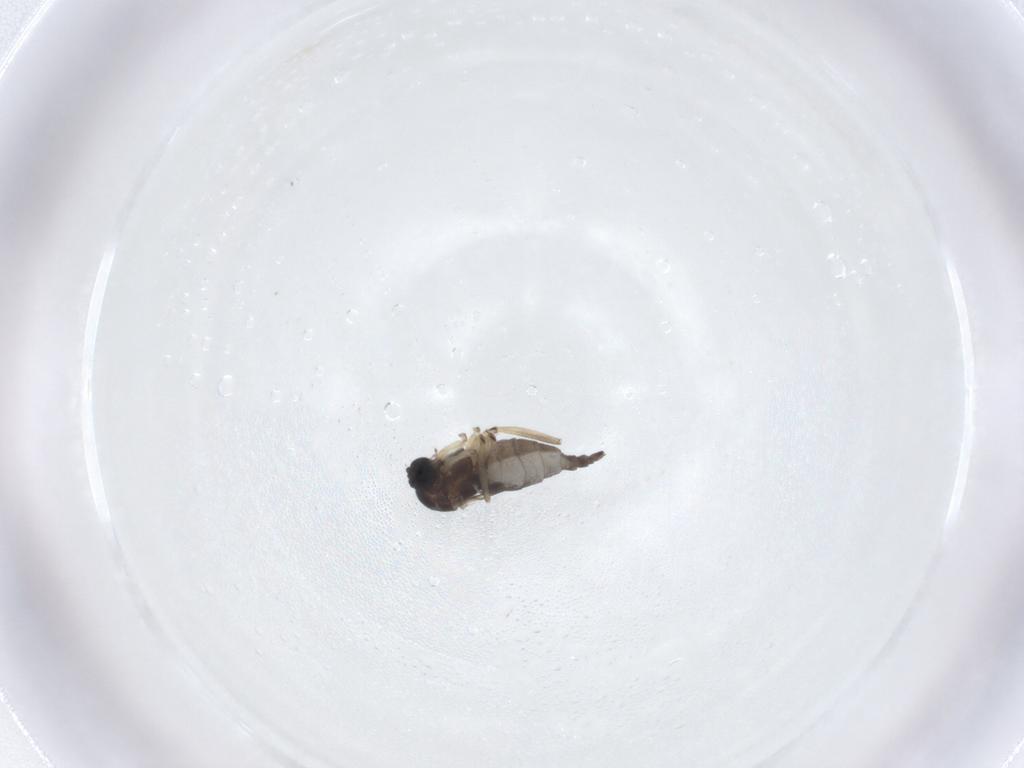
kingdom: Animalia
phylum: Arthropoda
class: Insecta
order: Diptera
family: Sciaridae
